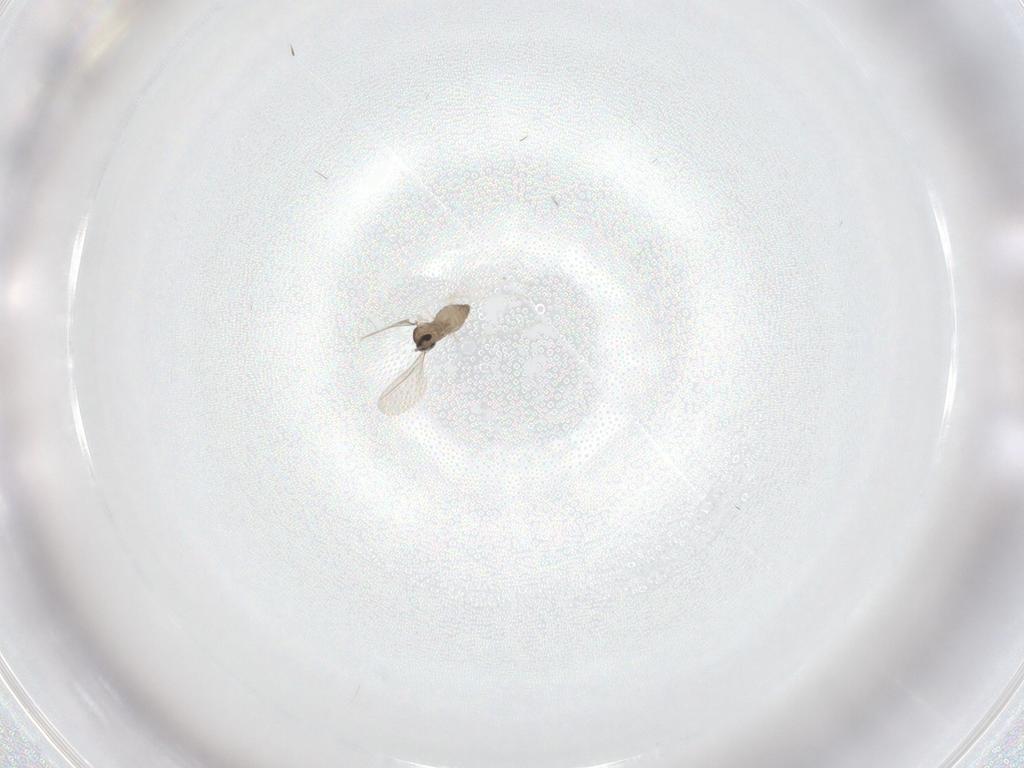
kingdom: Animalia
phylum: Arthropoda
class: Insecta
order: Diptera
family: Cecidomyiidae
